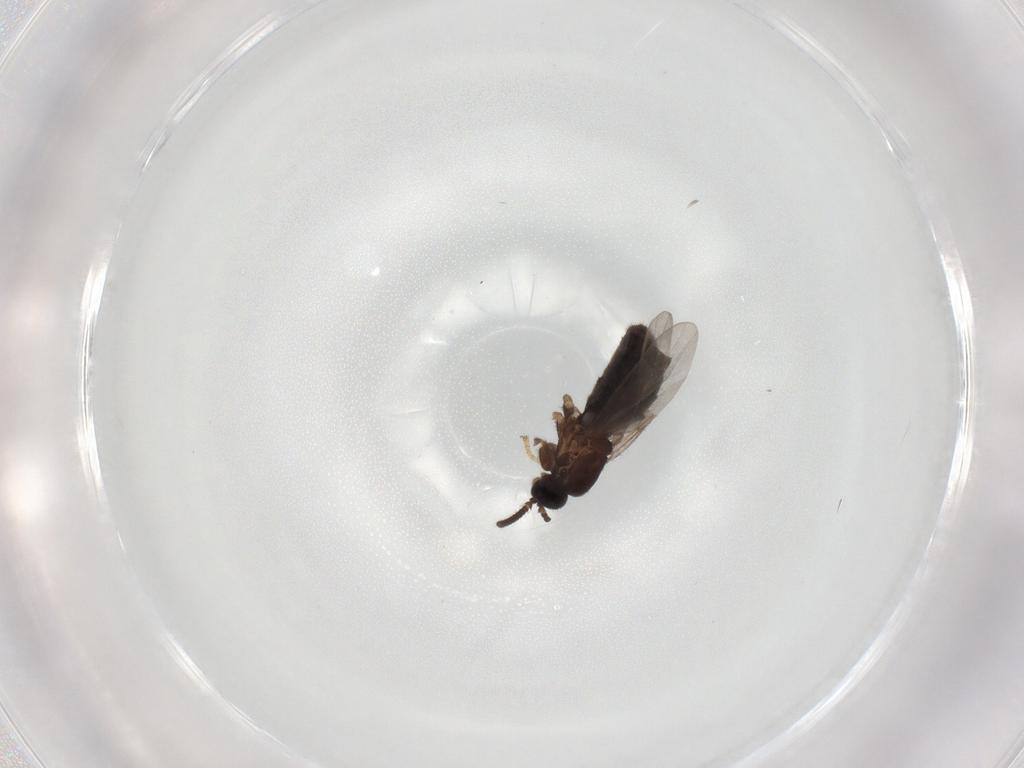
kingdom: Animalia
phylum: Arthropoda
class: Insecta
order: Diptera
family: Scatopsidae
